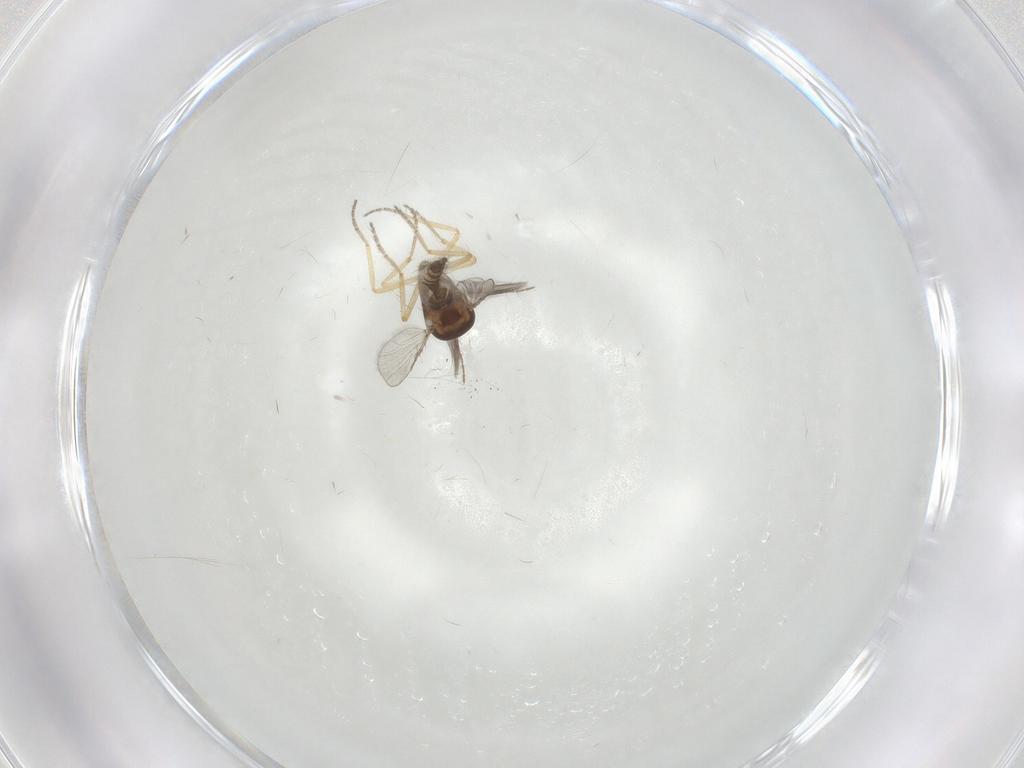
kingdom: Animalia
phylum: Arthropoda
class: Insecta
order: Diptera
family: Ceratopogonidae
